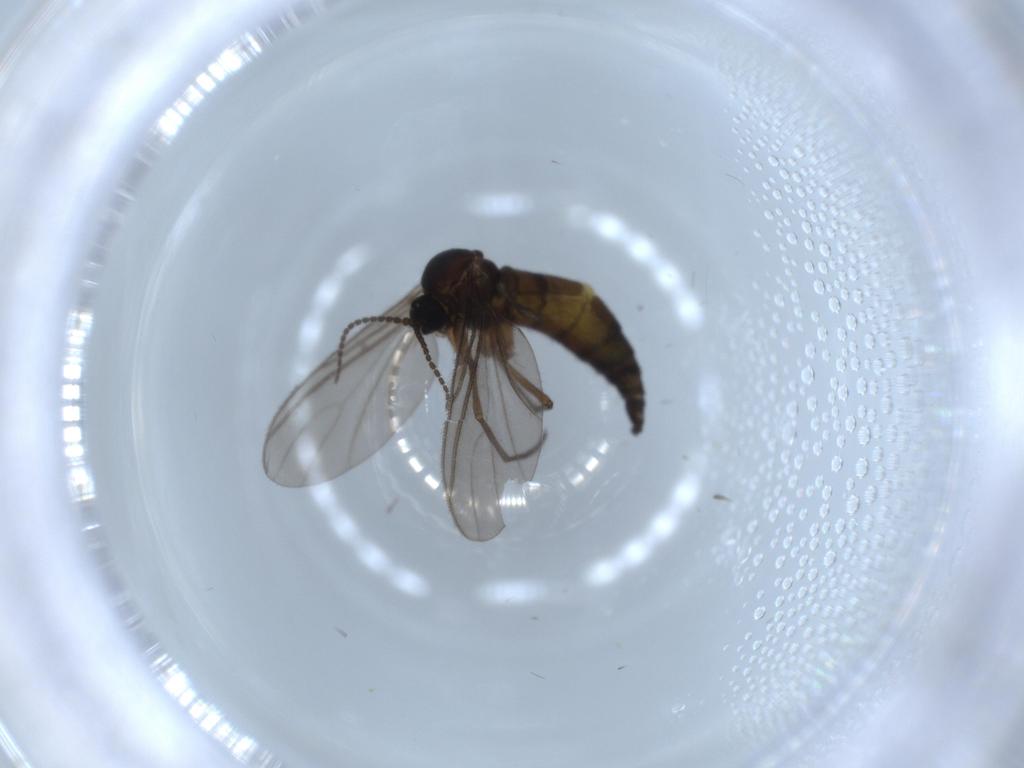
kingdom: Animalia
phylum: Arthropoda
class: Insecta
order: Diptera
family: Sciaridae
